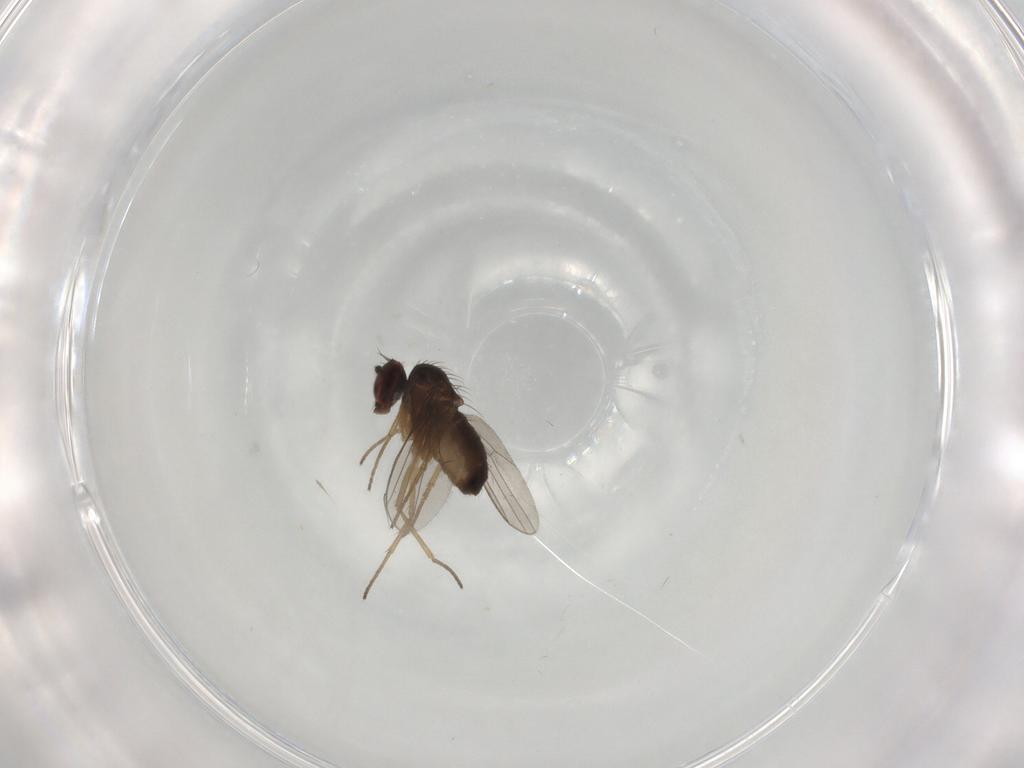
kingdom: Animalia
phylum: Arthropoda
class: Insecta
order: Diptera
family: Dolichopodidae
